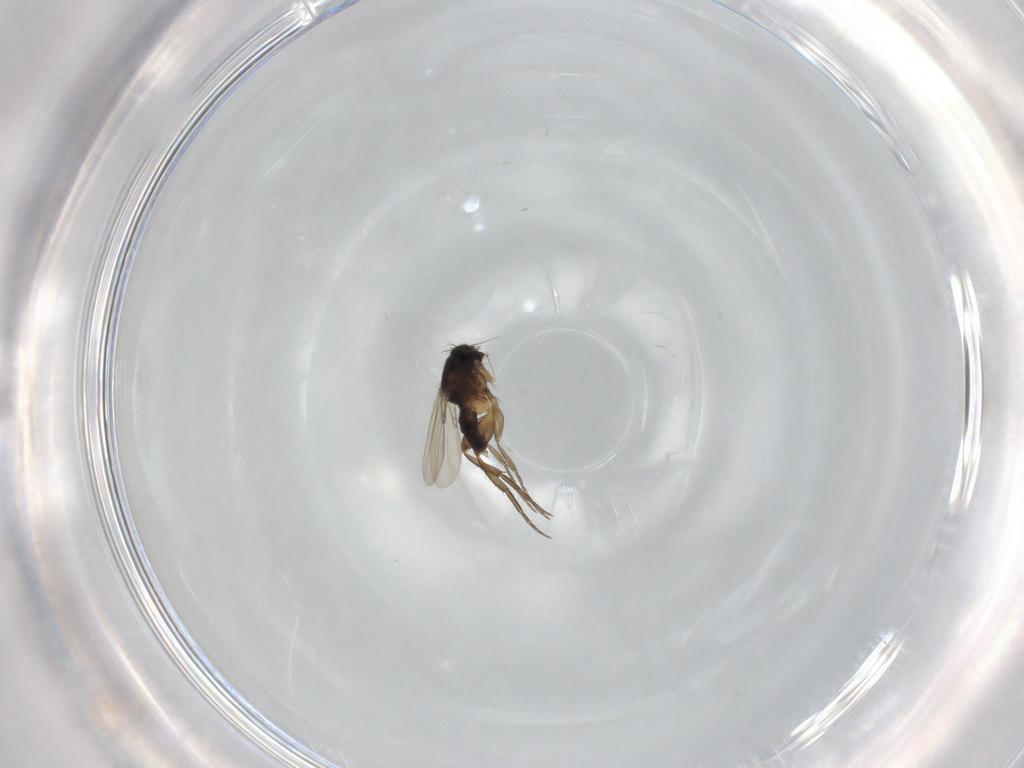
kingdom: Animalia
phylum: Arthropoda
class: Insecta
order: Diptera
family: Phoridae
